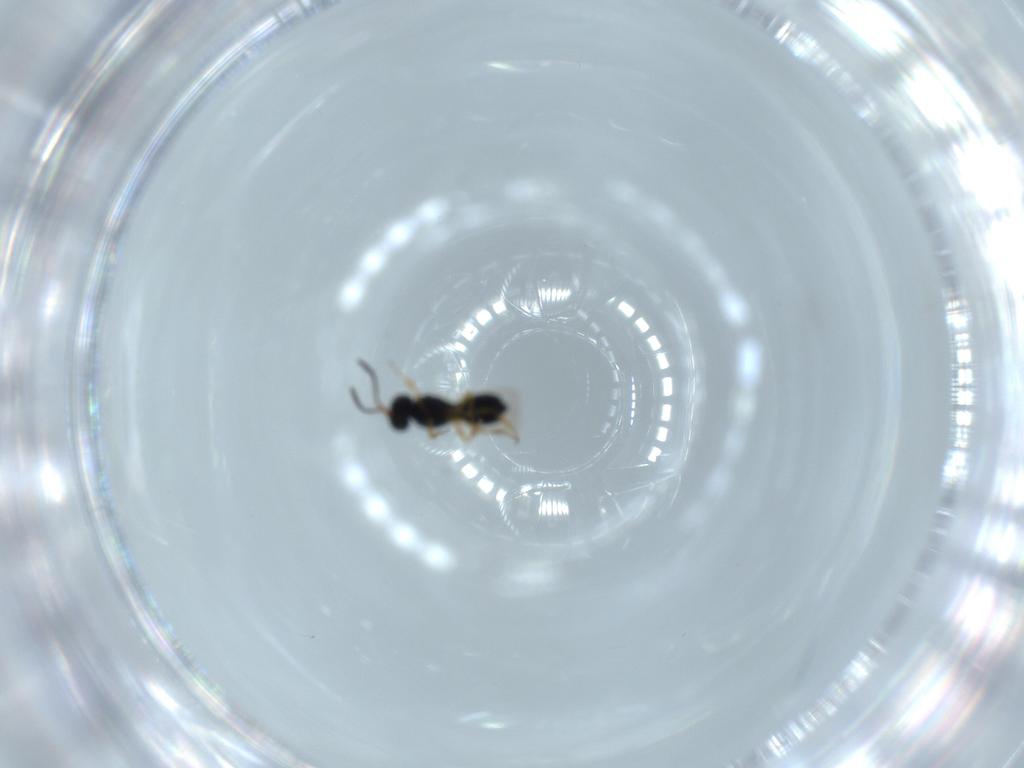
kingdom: Animalia
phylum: Arthropoda
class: Insecta
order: Hymenoptera
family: Scelionidae
